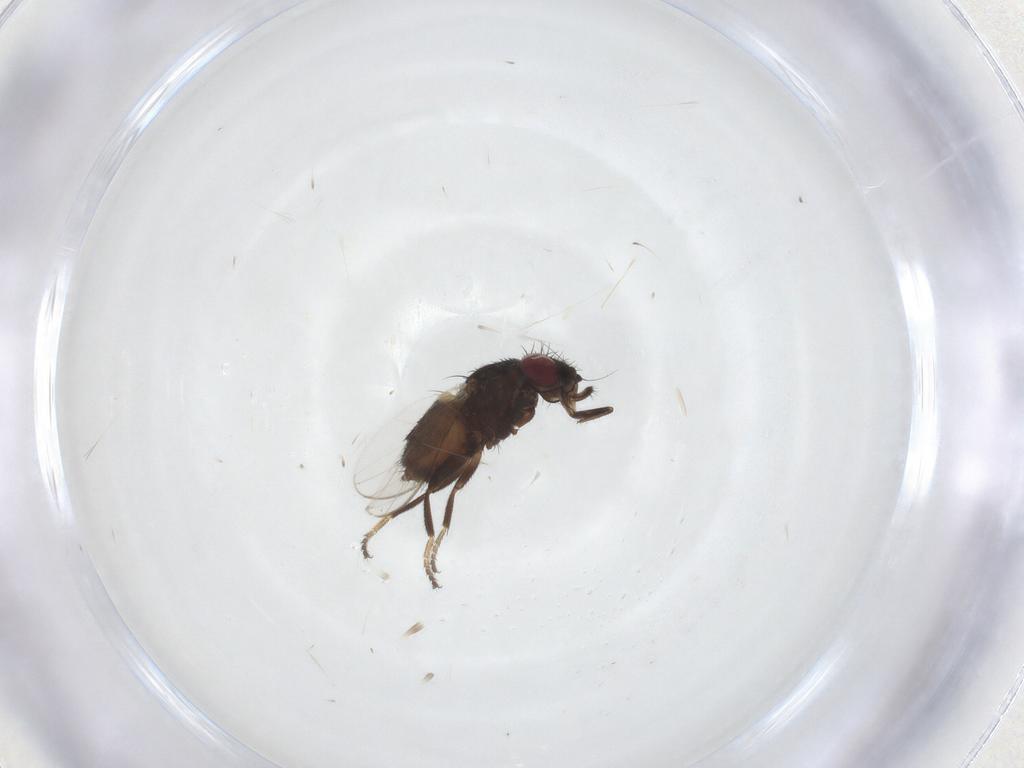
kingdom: Animalia
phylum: Arthropoda
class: Insecta
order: Diptera
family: Milichiidae
